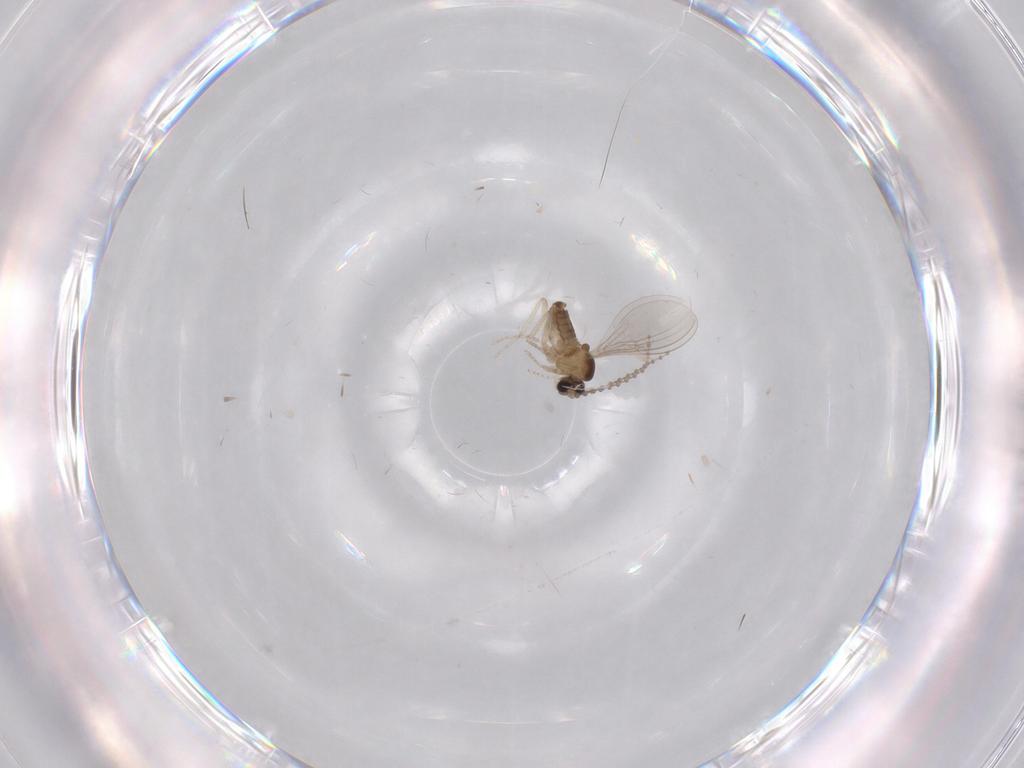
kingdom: Animalia
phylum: Arthropoda
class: Insecta
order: Diptera
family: Cecidomyiidae
